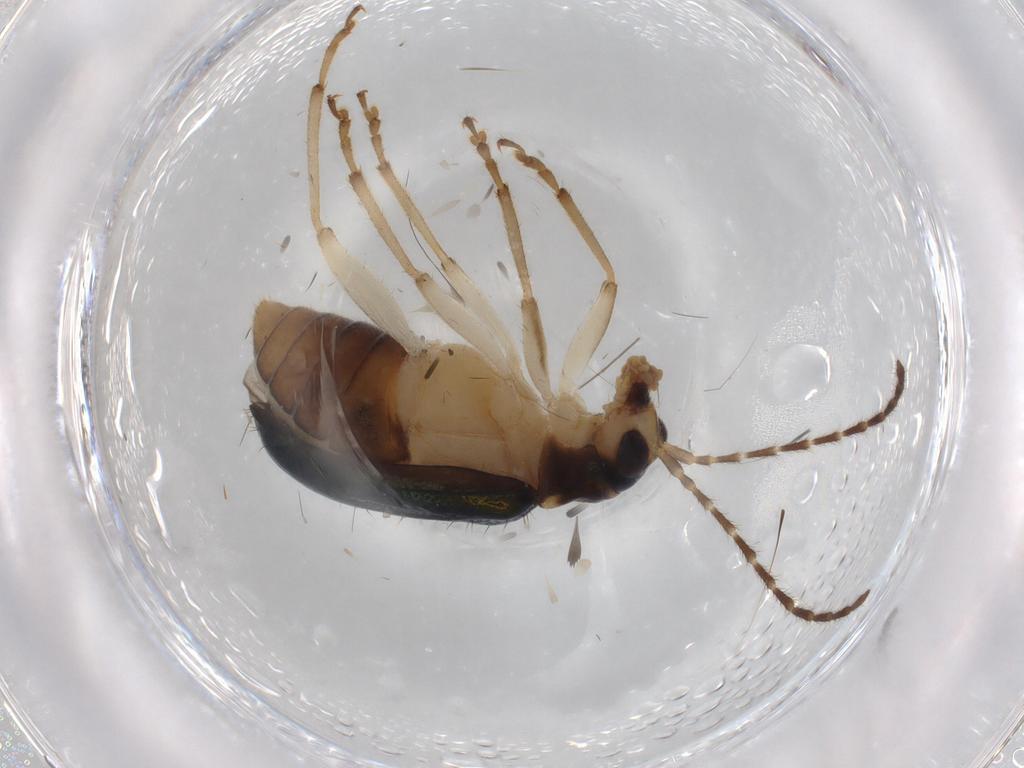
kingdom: Animalia
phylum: Arthropoda
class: Insecta
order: Coleoptera
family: Chrysomelidae
